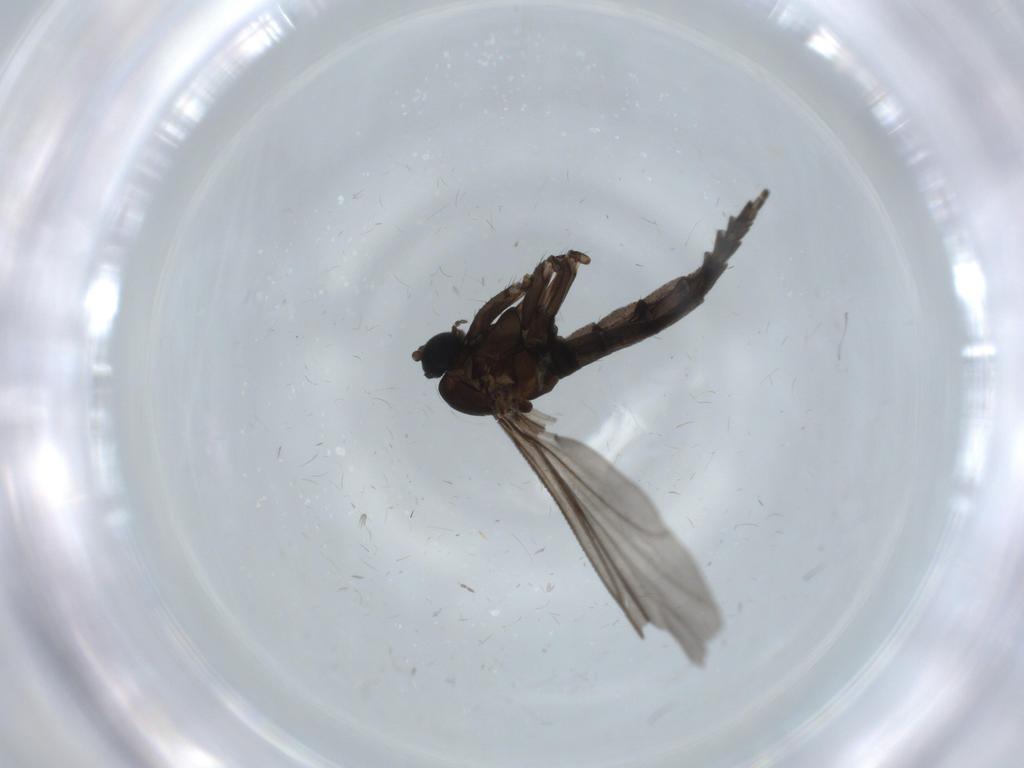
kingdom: Animalia
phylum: Arthropoda
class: Insecta
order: Diptera
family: Sciaridae
